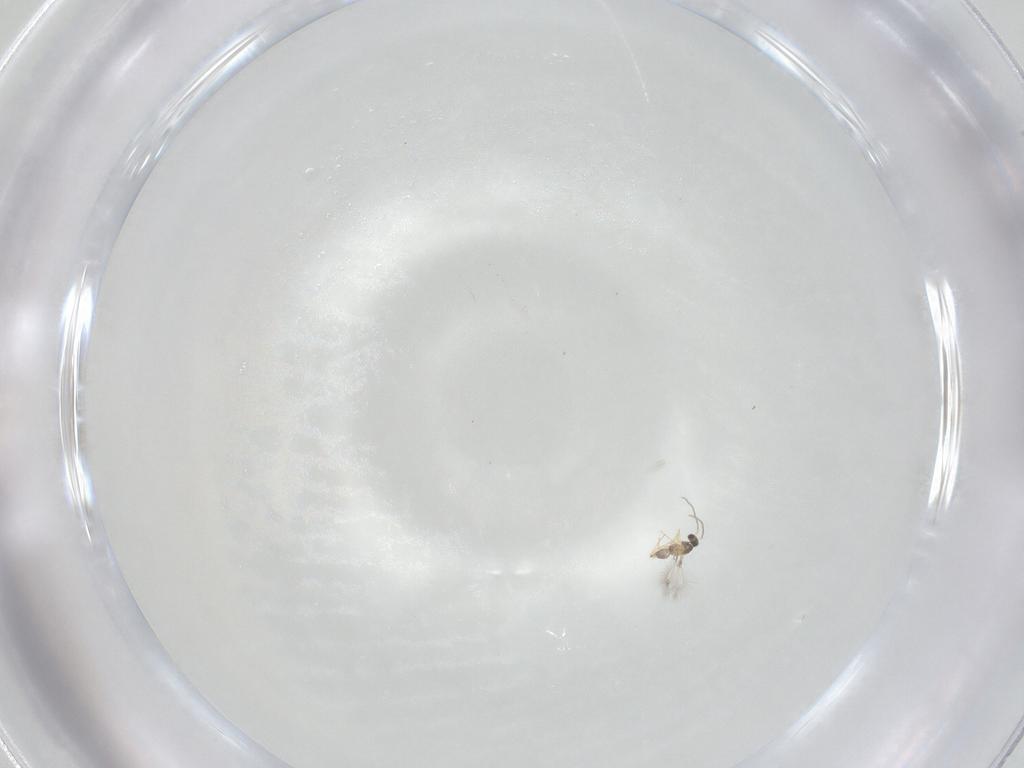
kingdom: Animalia
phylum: Arthropoda
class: Insecta
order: Hymenoptera
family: Mymaridae
